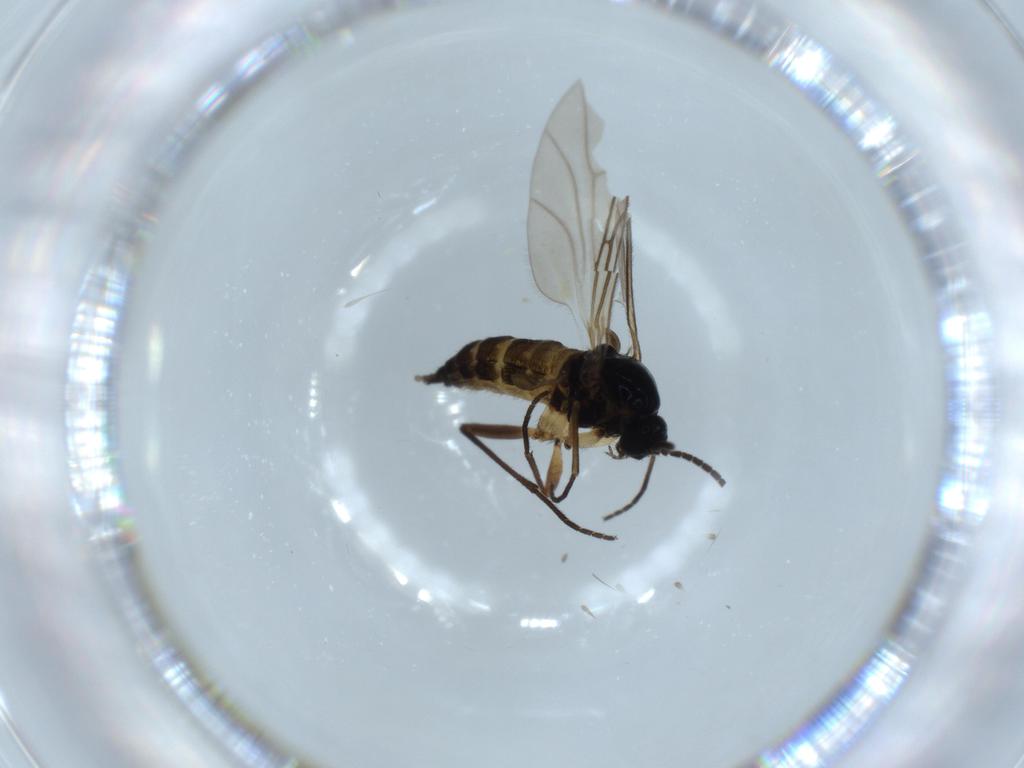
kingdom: Animalia
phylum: Arthropoda
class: Insecta
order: Diptera
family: Sciaridae
